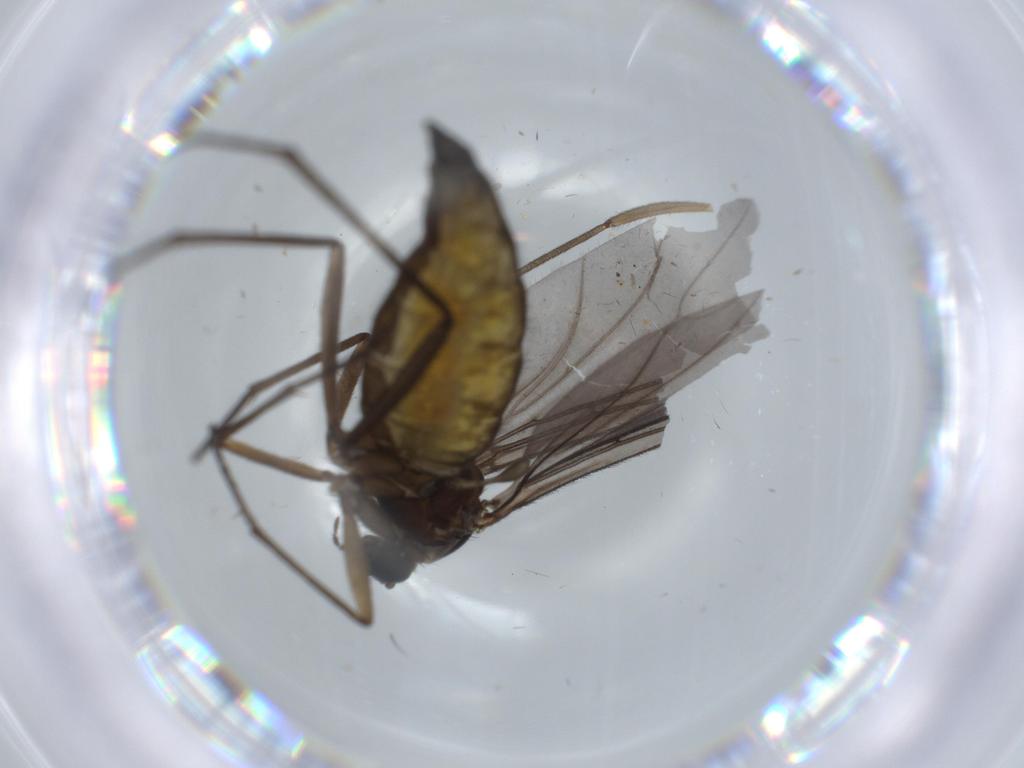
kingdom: Animalia
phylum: Arthropoda
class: Insecta
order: Diptera
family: Sciaridae
